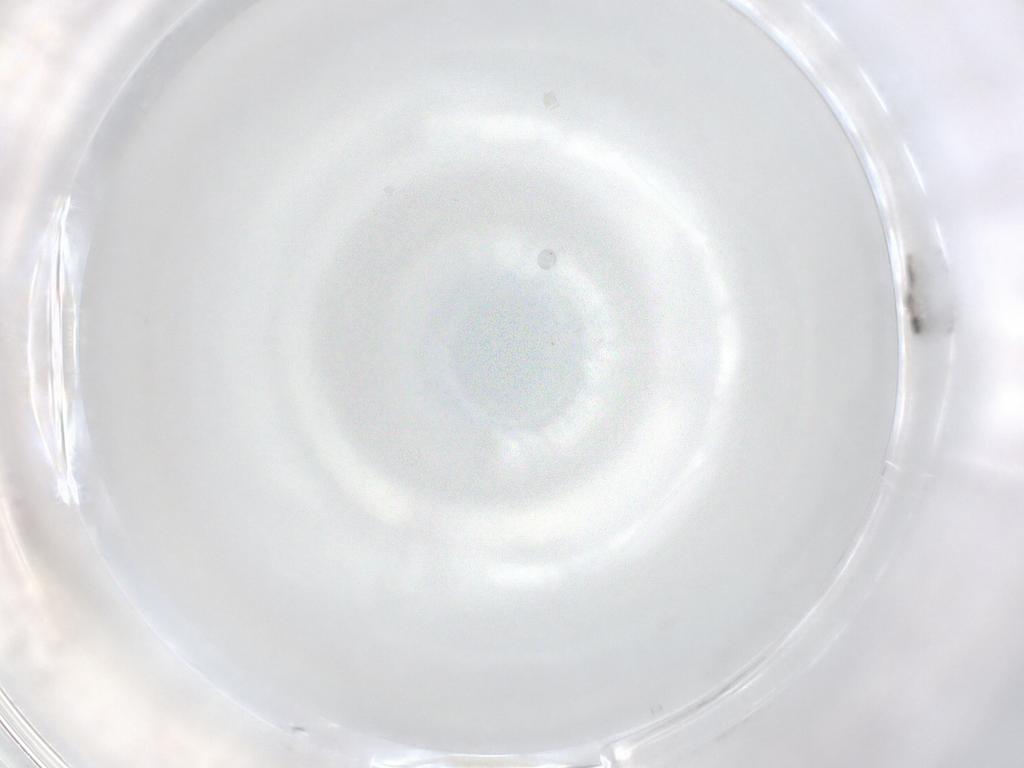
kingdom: Animalia
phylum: Arthropoda
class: Insecta
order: Diptera
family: Cecidomyiidae
